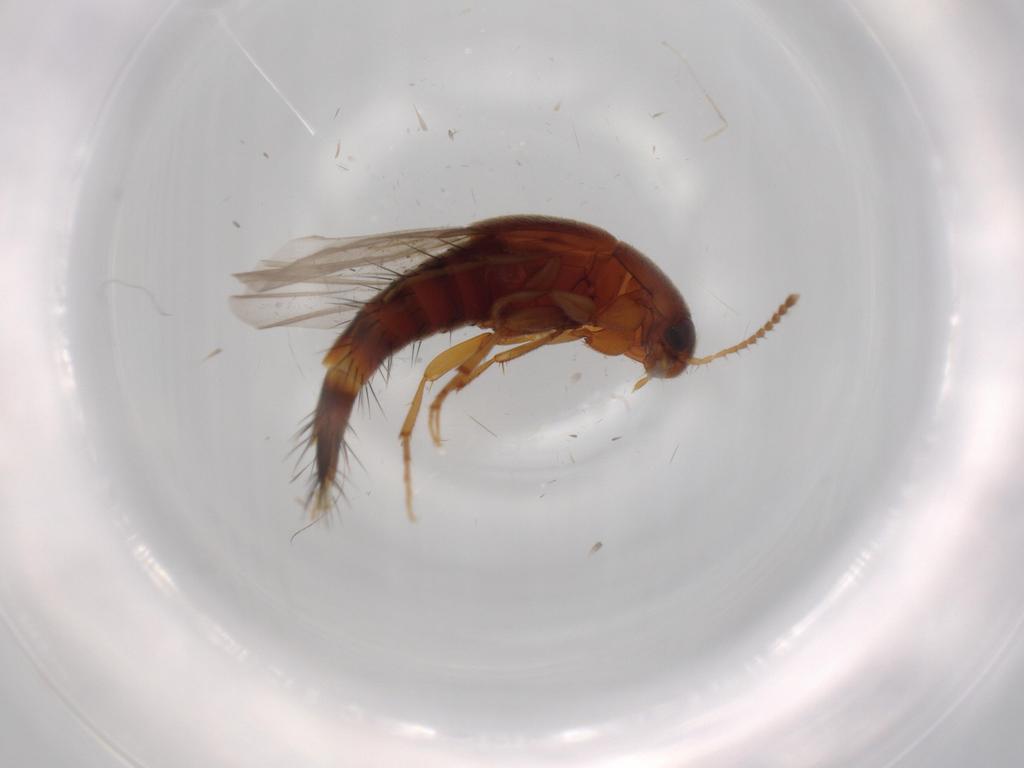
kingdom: Animalia
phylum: Arthropoda
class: Insecta
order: Coleoptera
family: Staphylinidae
